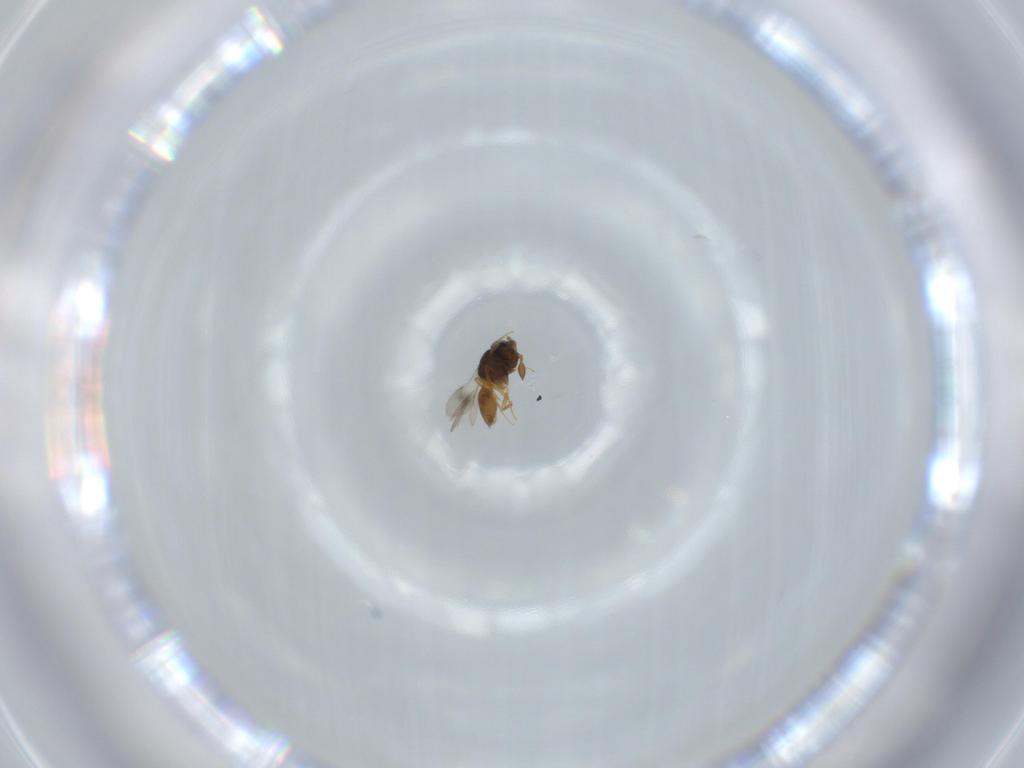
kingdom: Animalia
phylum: Arthropoda
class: Insecta
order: Hymenoptera
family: Scelionidae
